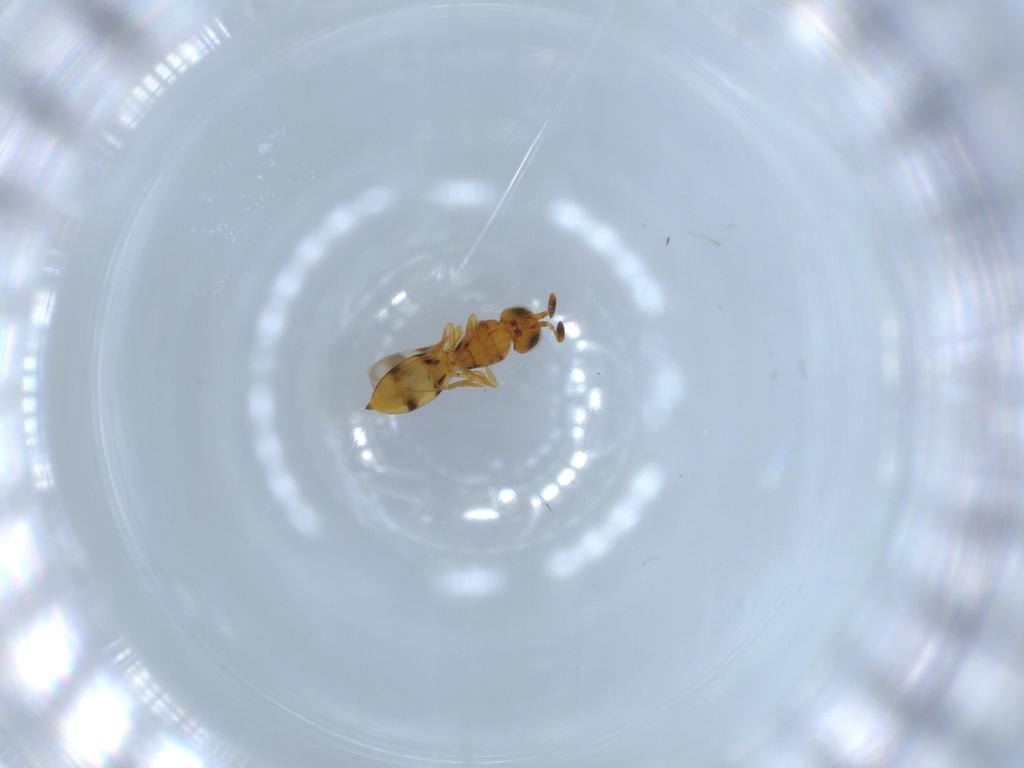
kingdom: Animalia
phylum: Arthropoda
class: Insecta
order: Hymenoptera
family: Scelionidae
